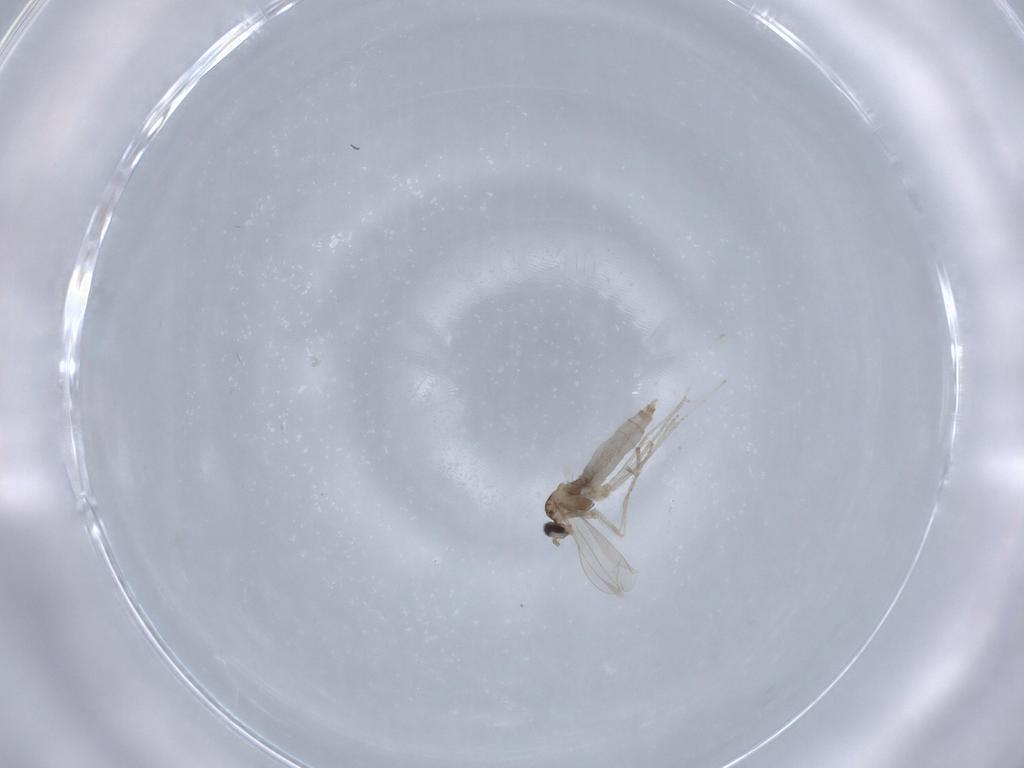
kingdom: Animalia
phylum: Arthropoda
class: Insecta
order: Diptera
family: Cecidomyiidae
